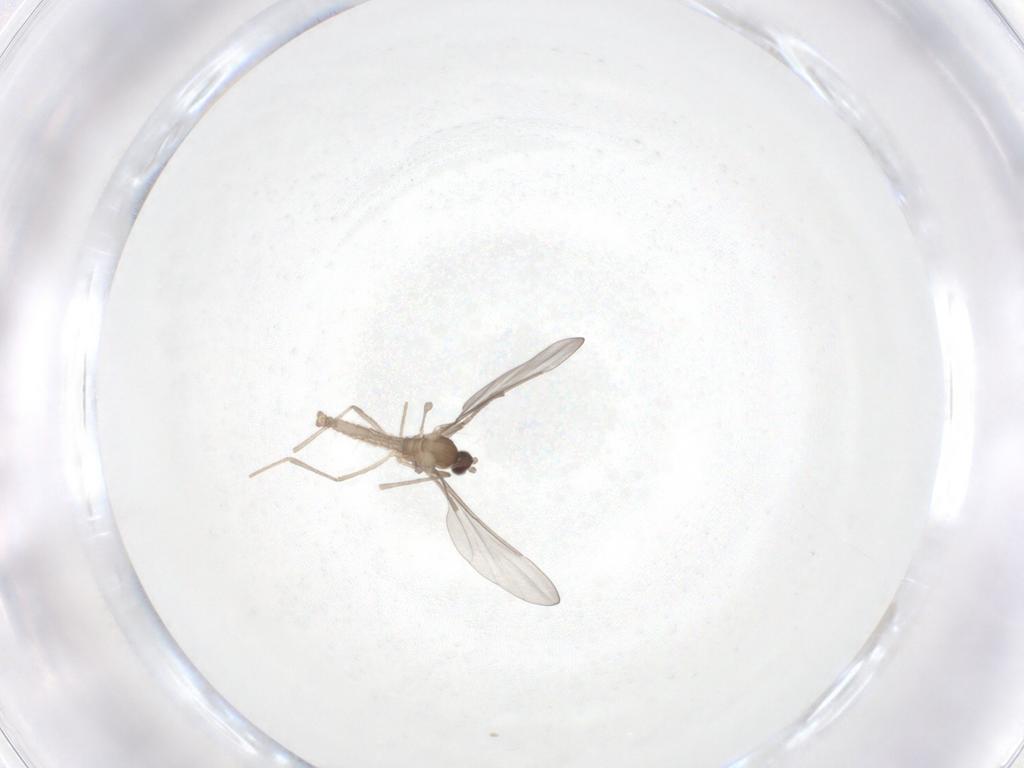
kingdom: Animalia
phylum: Arthropoda
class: Insecta
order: Diptera
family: Cecidomyiidae
